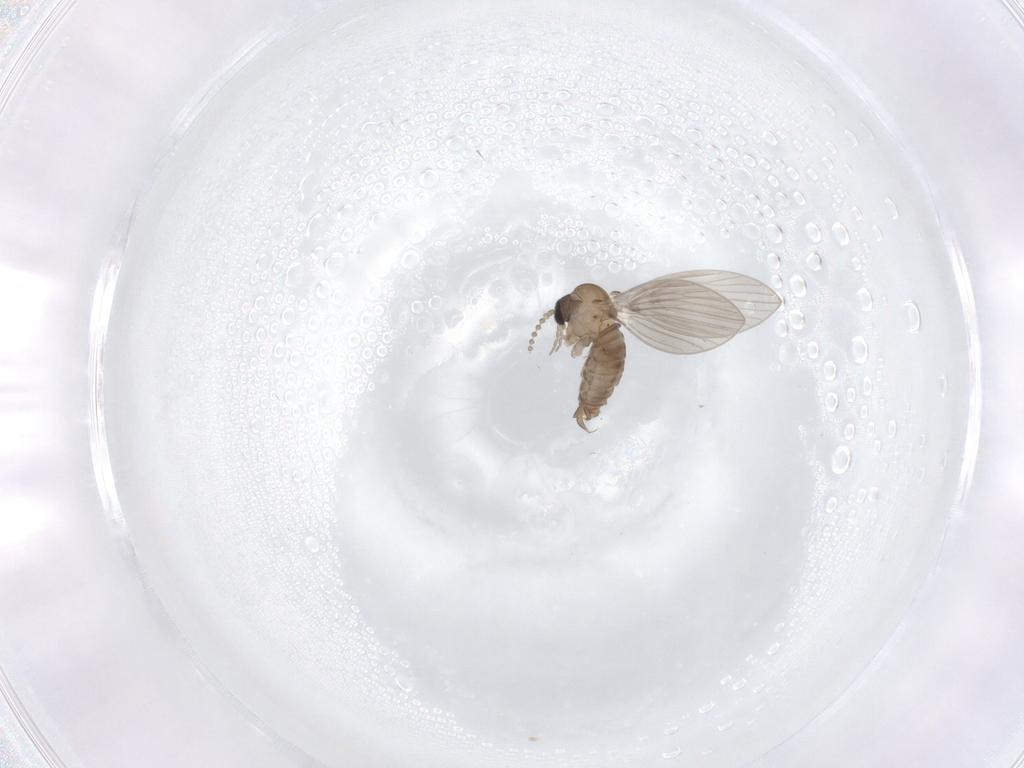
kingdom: Animalia
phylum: Arthropoda
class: Insecta
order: Diptera
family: Psychodidae
